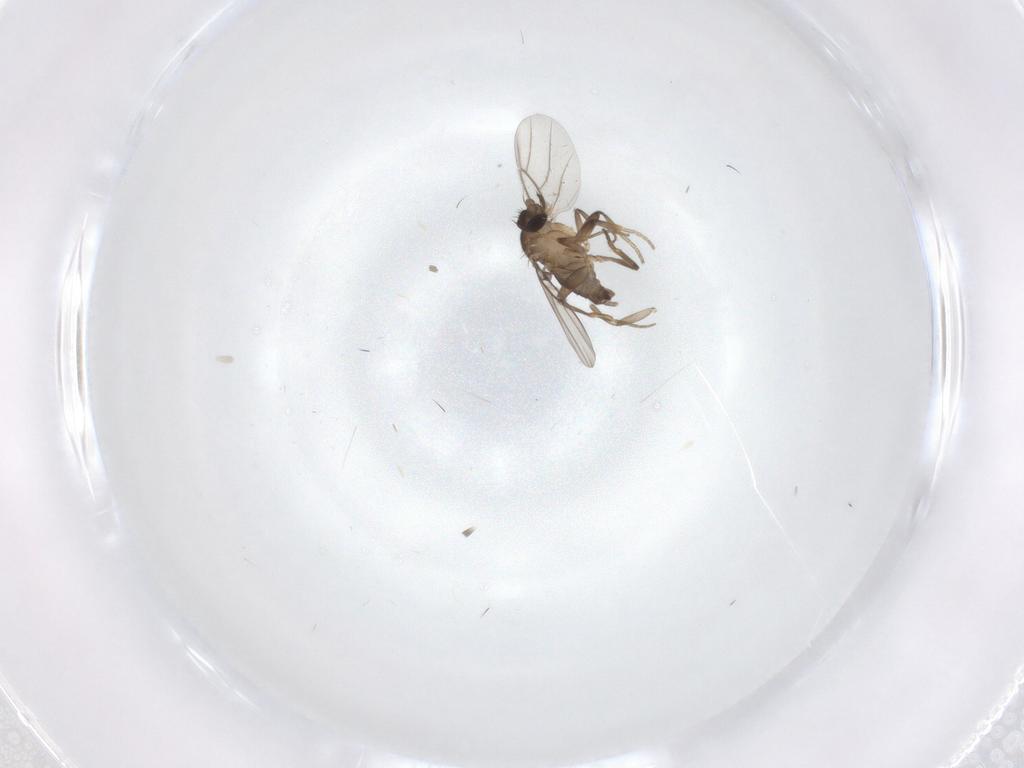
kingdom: Animalia
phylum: Arthropoda
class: Insecta
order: Diptera
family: Phoridae
